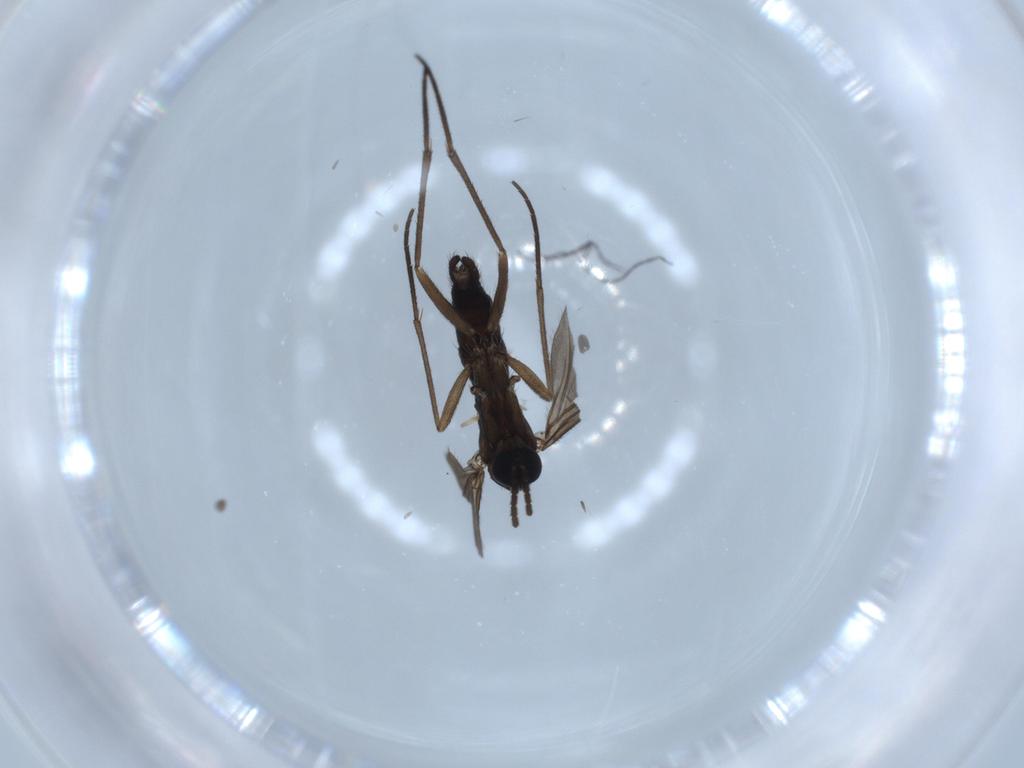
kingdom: Animalia
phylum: Arthropoda
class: Insecta
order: Diptera
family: Sciaridae
